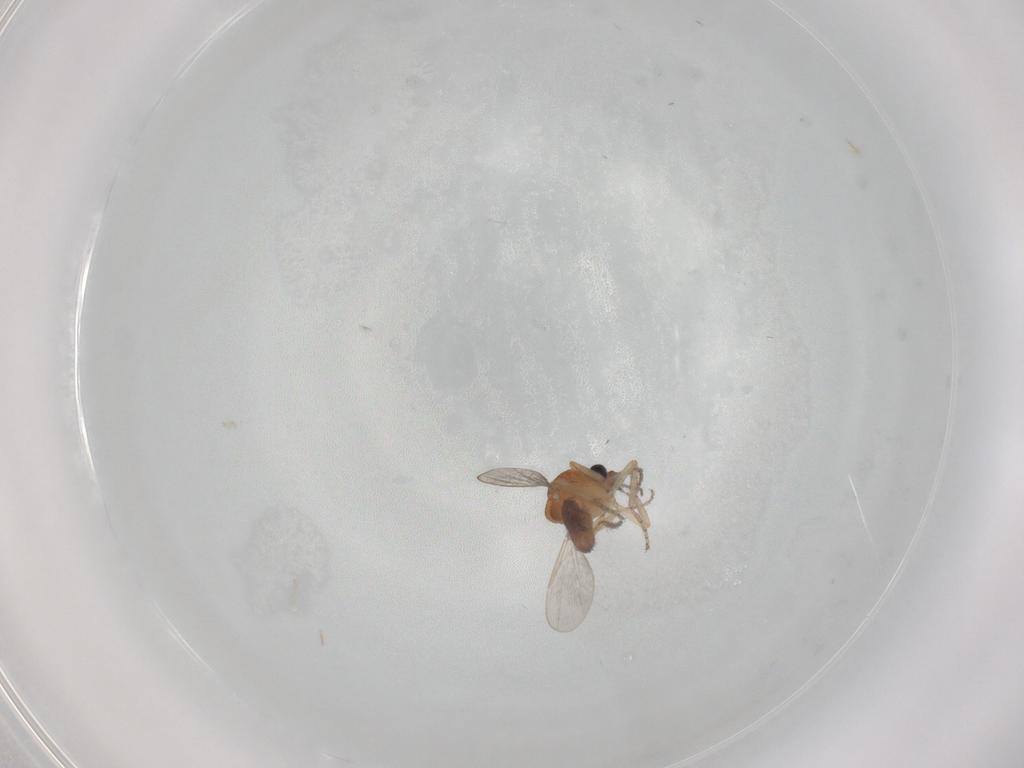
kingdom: Animalia
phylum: Arthropoda
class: Insecta
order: Diptera
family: Ceratopogonidae
